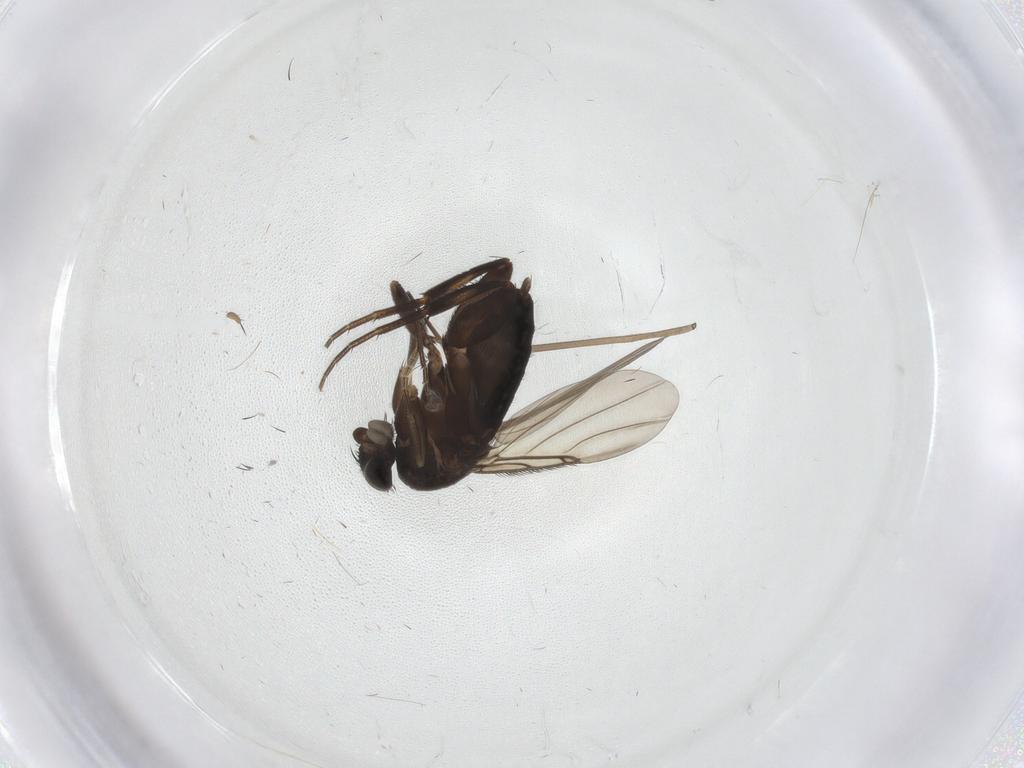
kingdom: Animalia
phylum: Arthropoda
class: Insecta
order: Diptera
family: Phoridae
